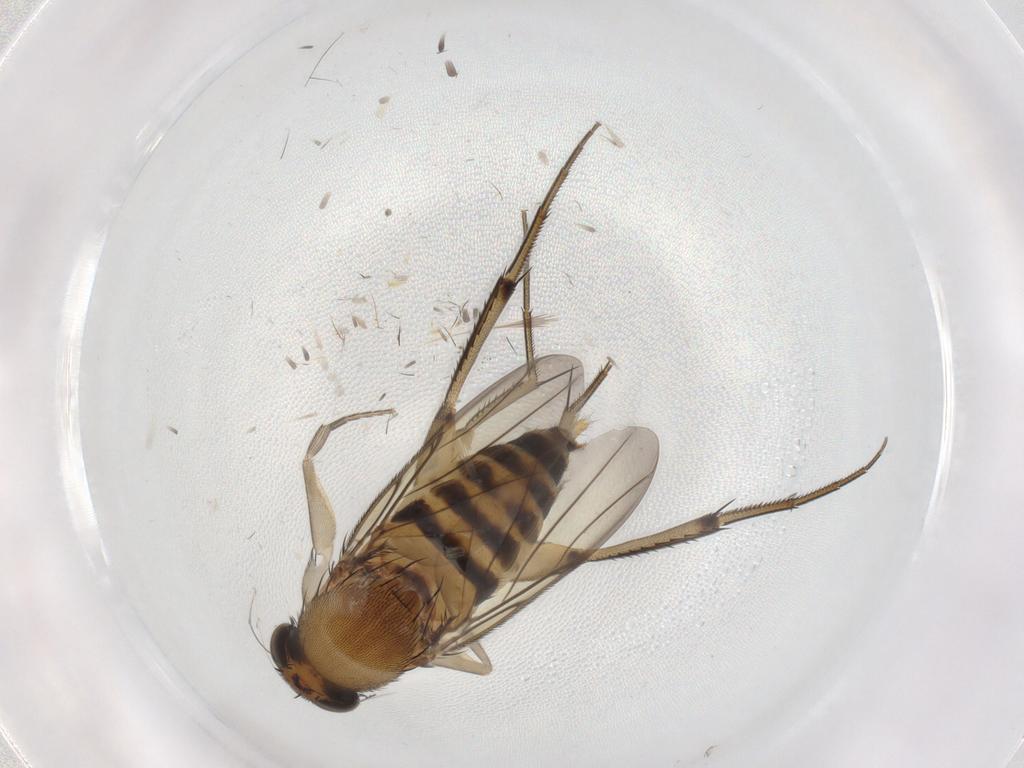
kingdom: Animalia
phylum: Arthropoda
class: Insecta
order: Diptera
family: Phoridae
